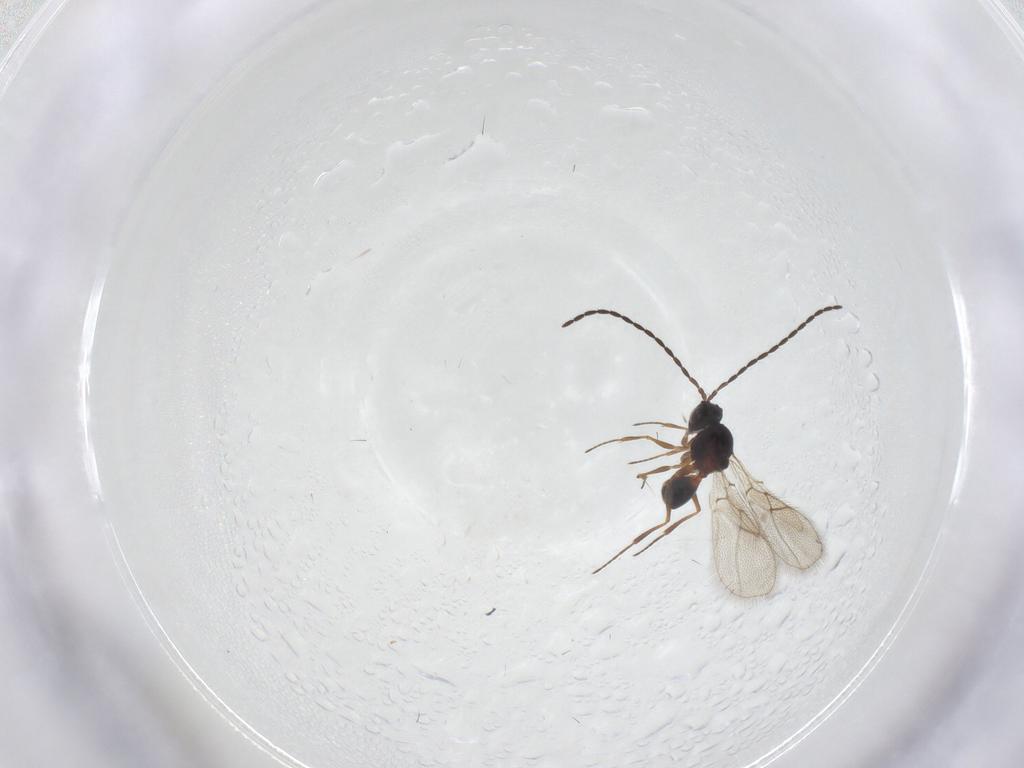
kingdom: Animalia
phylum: Arthropoda
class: Insecta
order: Hymenoptera
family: Figitidae
